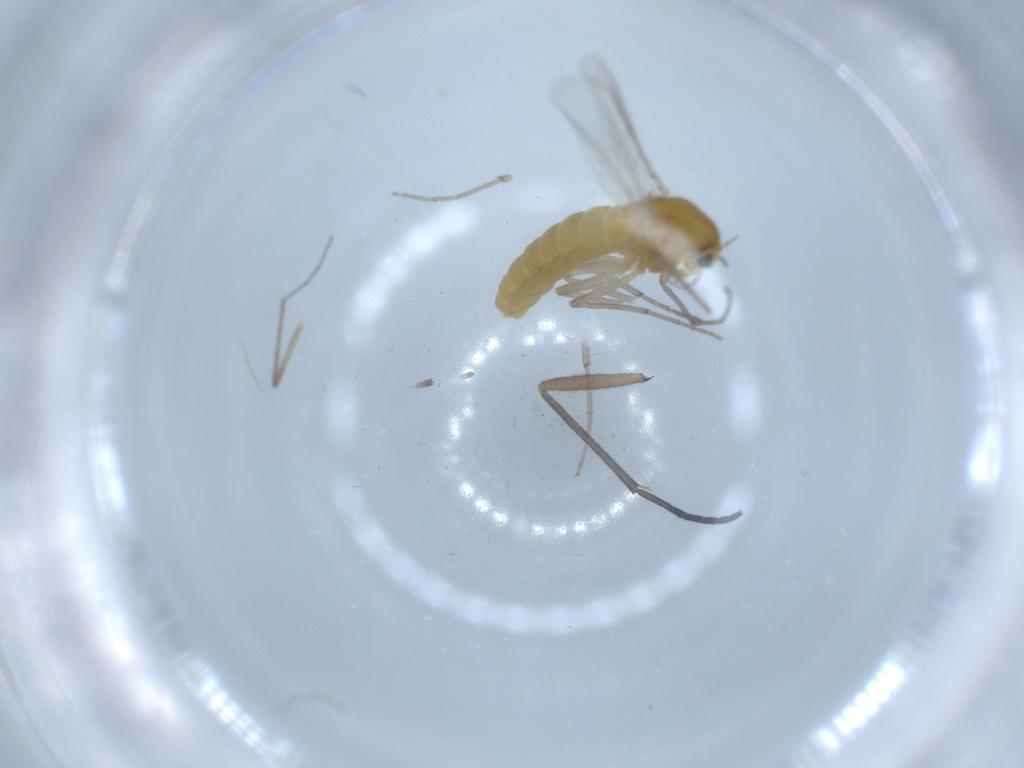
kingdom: Animalia
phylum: Arthropoda
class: Insecta
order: Diptera
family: Chironomidae
